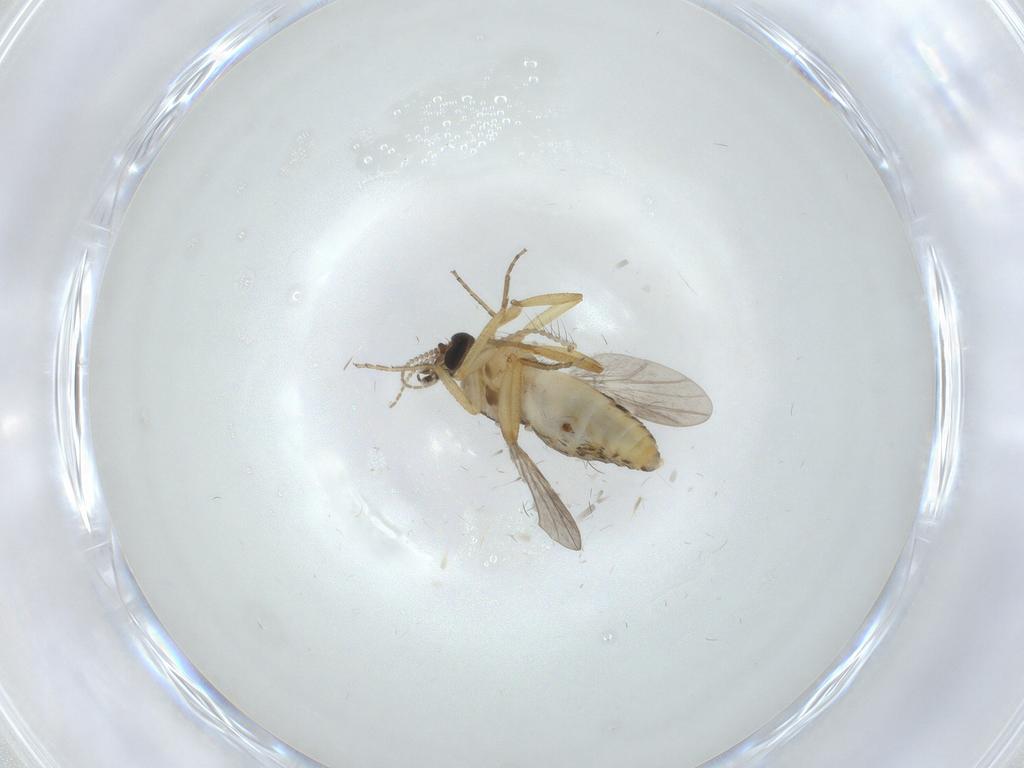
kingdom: Animalia
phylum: Arthropoda
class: Insecta
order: Diptera
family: Ceratopogonidae
